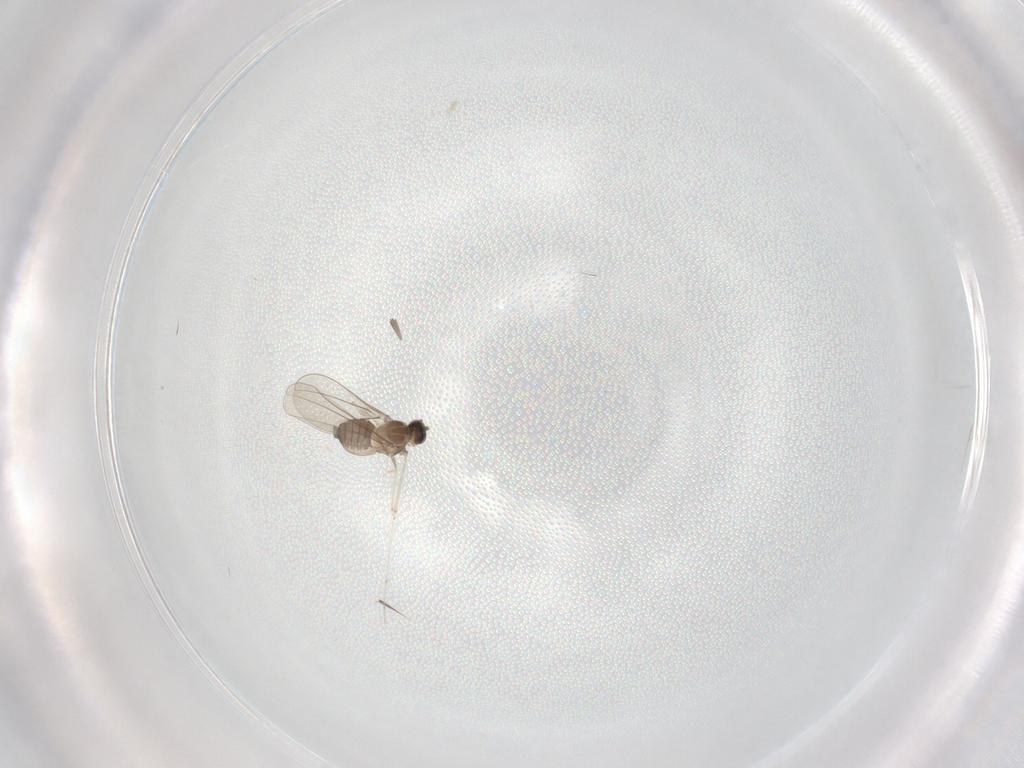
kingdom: Animalia
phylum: Arthropoda
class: Insecta
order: Diptera
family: Cecidomyiidae
